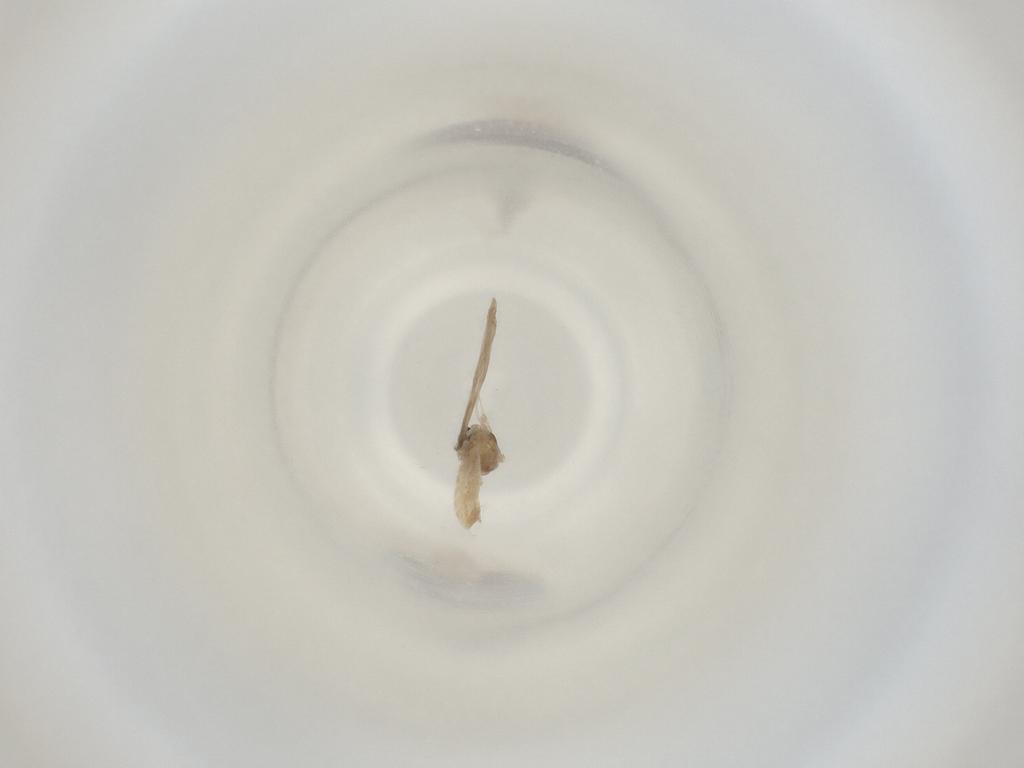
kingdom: Animalia
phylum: Arthropoda
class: Insecta
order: Diptera
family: Cecidomyiidae
